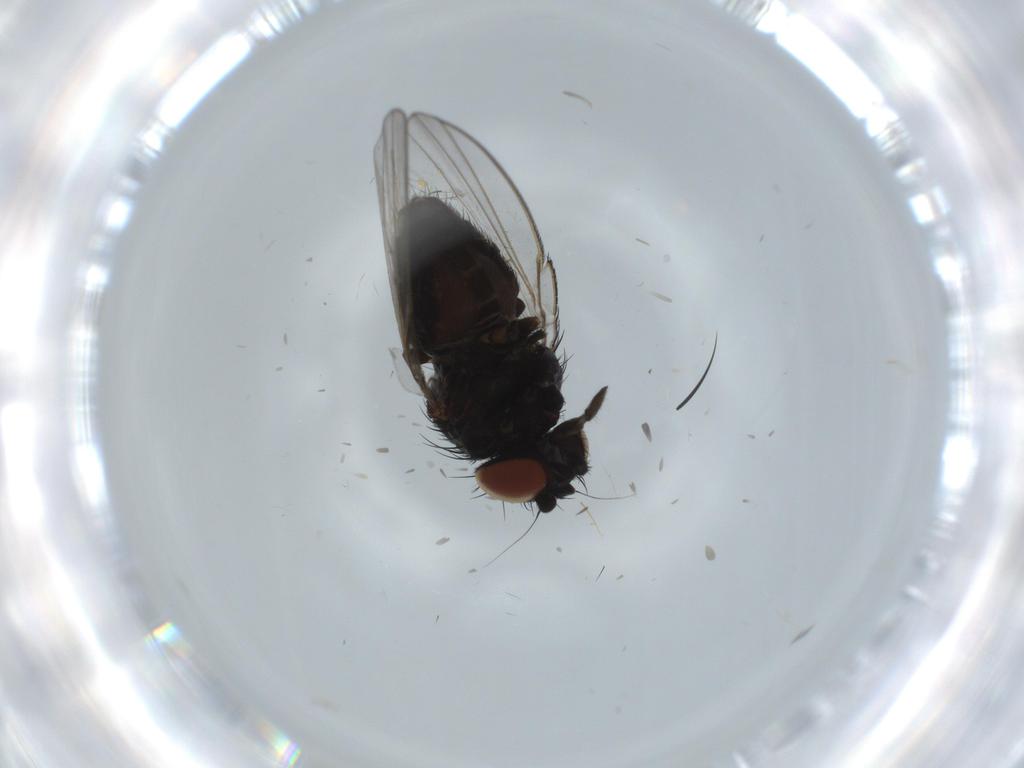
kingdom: Animalia
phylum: Arthropoda
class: Insecta
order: Diptera
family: Milichiidae
